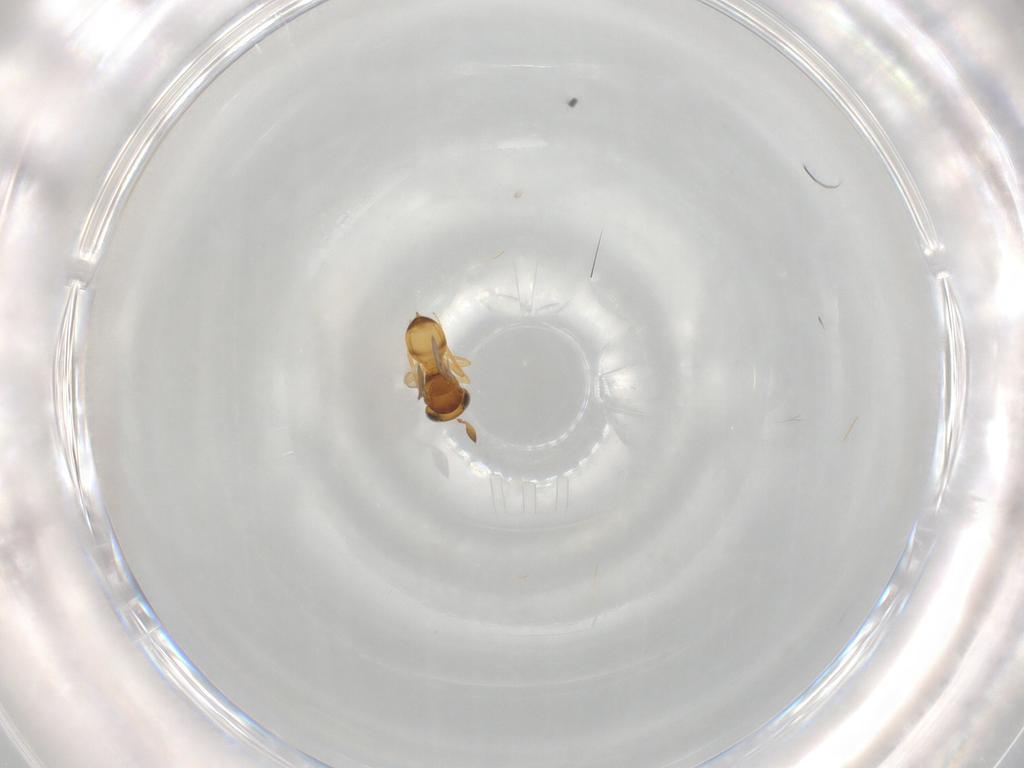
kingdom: Animalia
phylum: Arthropoda
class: Insecta
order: Hymenoptera
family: Scelionidae
